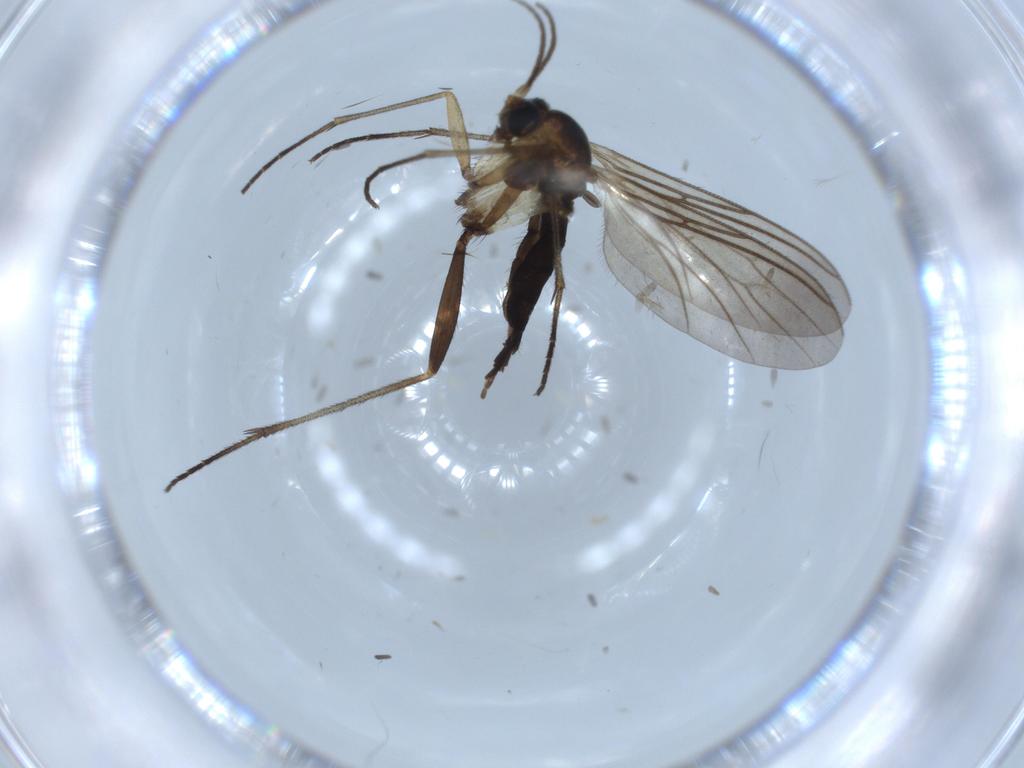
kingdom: Animalia
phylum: Arthropoda
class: Insecta
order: Diptera
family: Sciaridae
